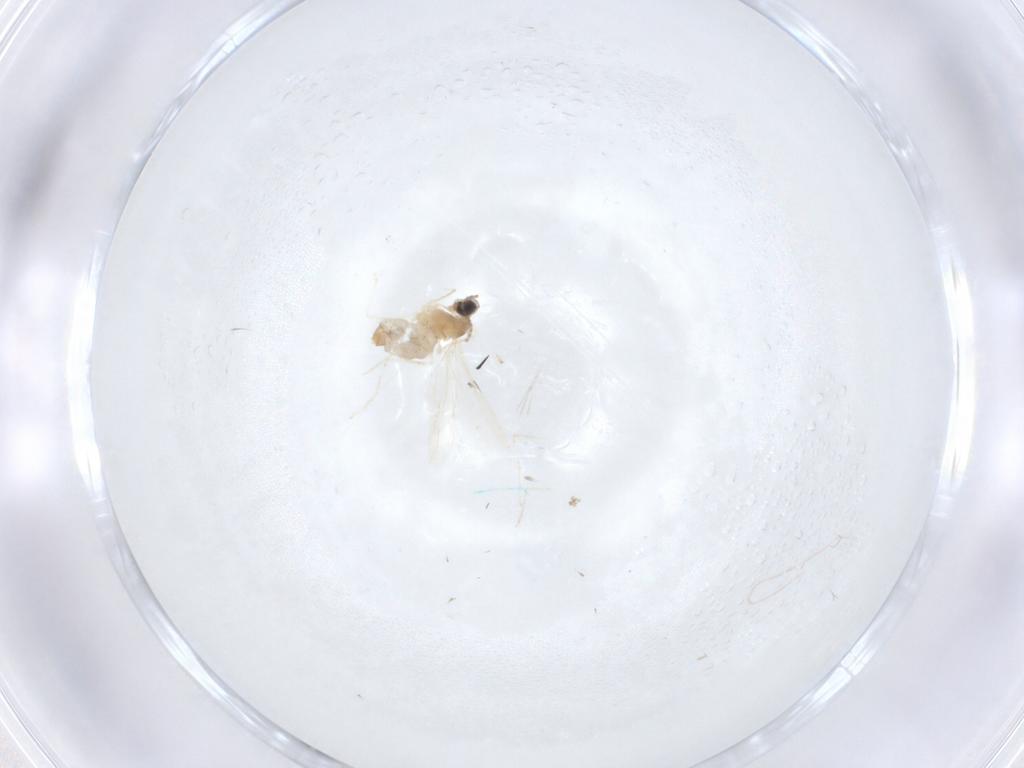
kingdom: Animalia
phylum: Arthropoda
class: Insecta
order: Diptera
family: Cecidomyiidae
